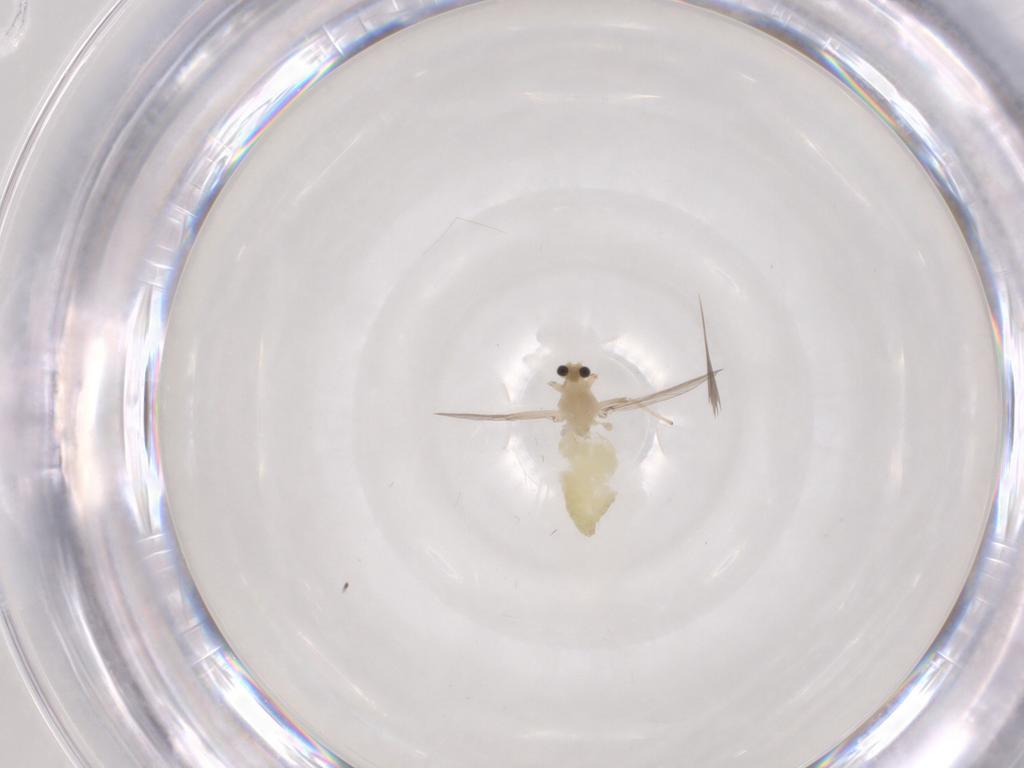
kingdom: Animalia
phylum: Arthropoda
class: Insecta
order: Diptera
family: Chironomidae
